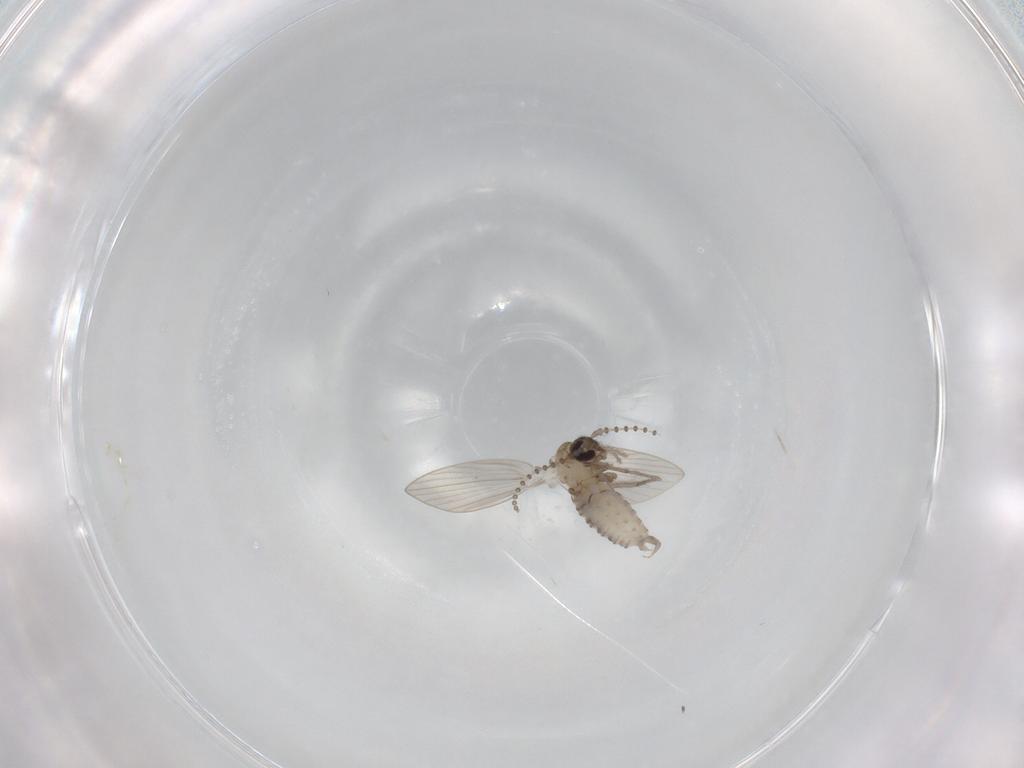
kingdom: Animalia
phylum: Arthropoda
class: Insecta
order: Diptera
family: Psychodidae
